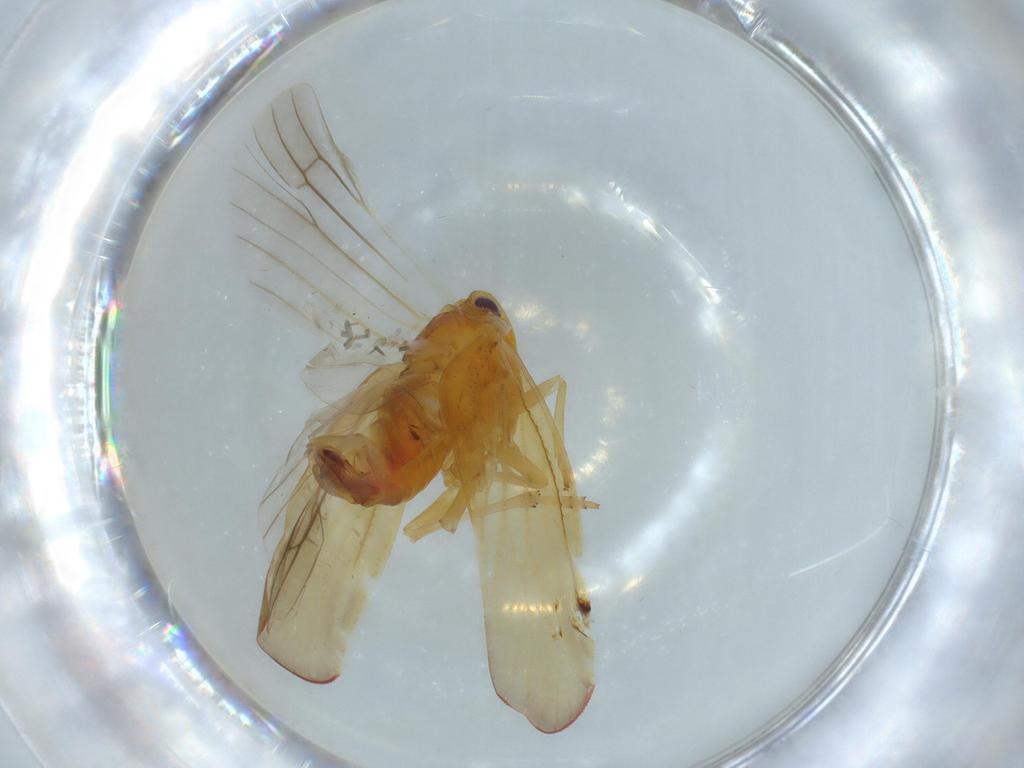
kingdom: Animalia
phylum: Arthropoda
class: Insecta
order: Hemiptera
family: Derbidae
